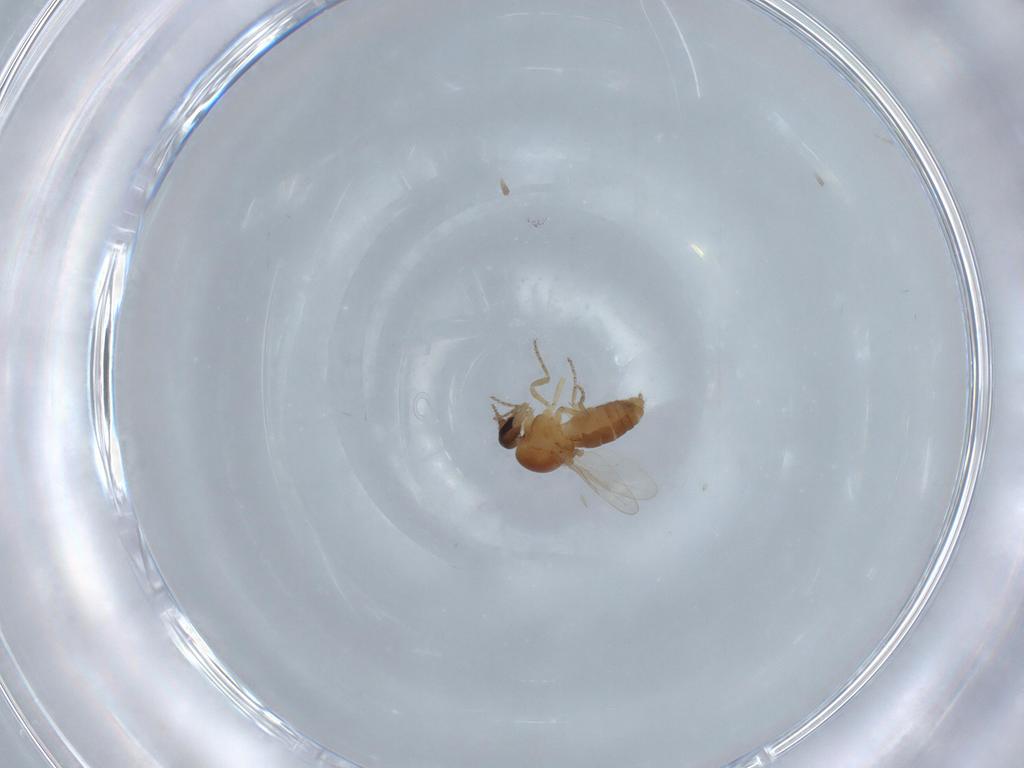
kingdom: Animalia
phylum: Arthropoda
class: Insecta
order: Diptera
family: Ceratopogonidae
